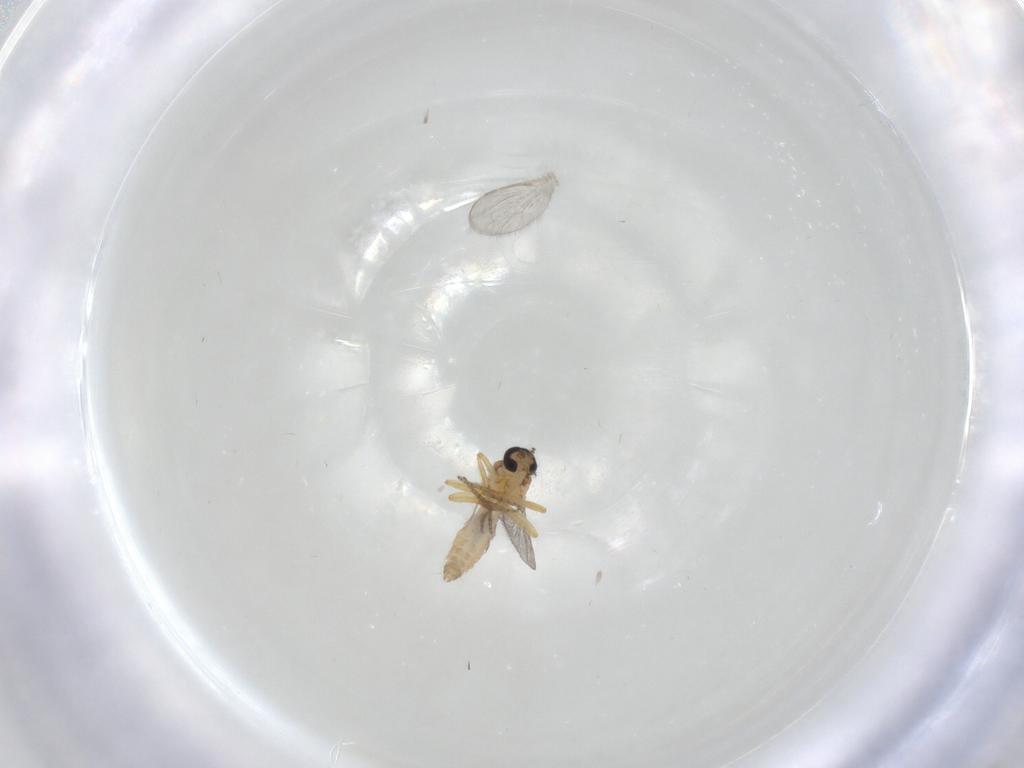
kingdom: Animalia
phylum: Arthropoda
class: Insecta
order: Diptera
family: Ceratopogonidae
